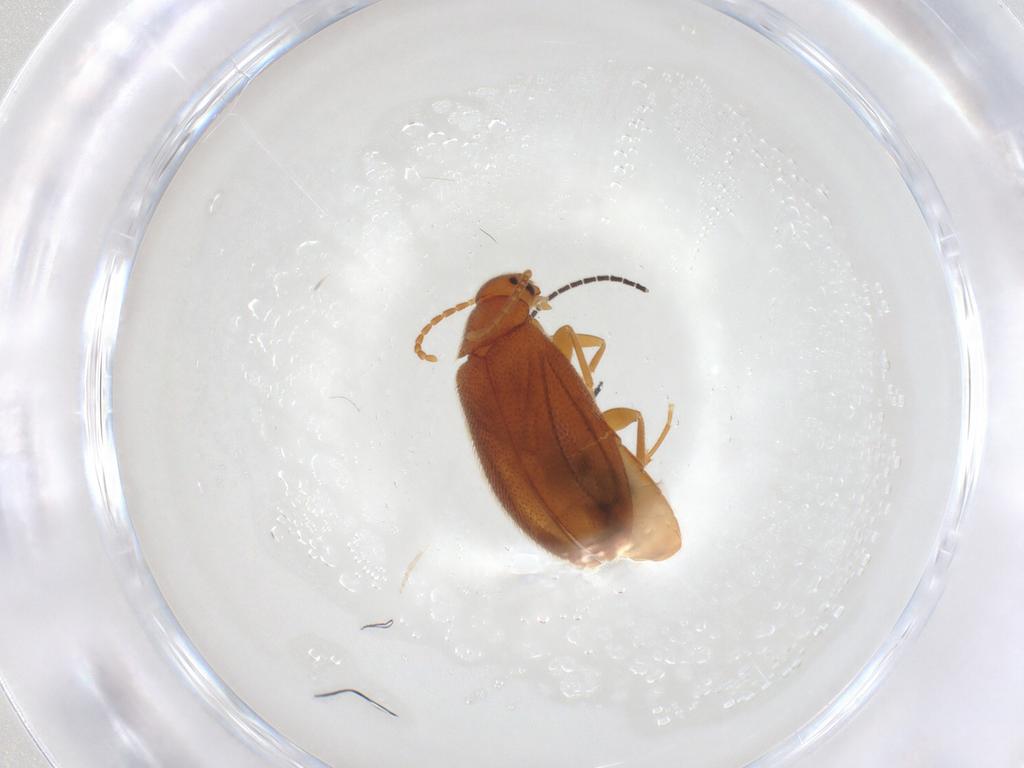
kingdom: Animalia
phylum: Arthropoda
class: Insecta
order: Coleoptera
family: Scraptiidae
